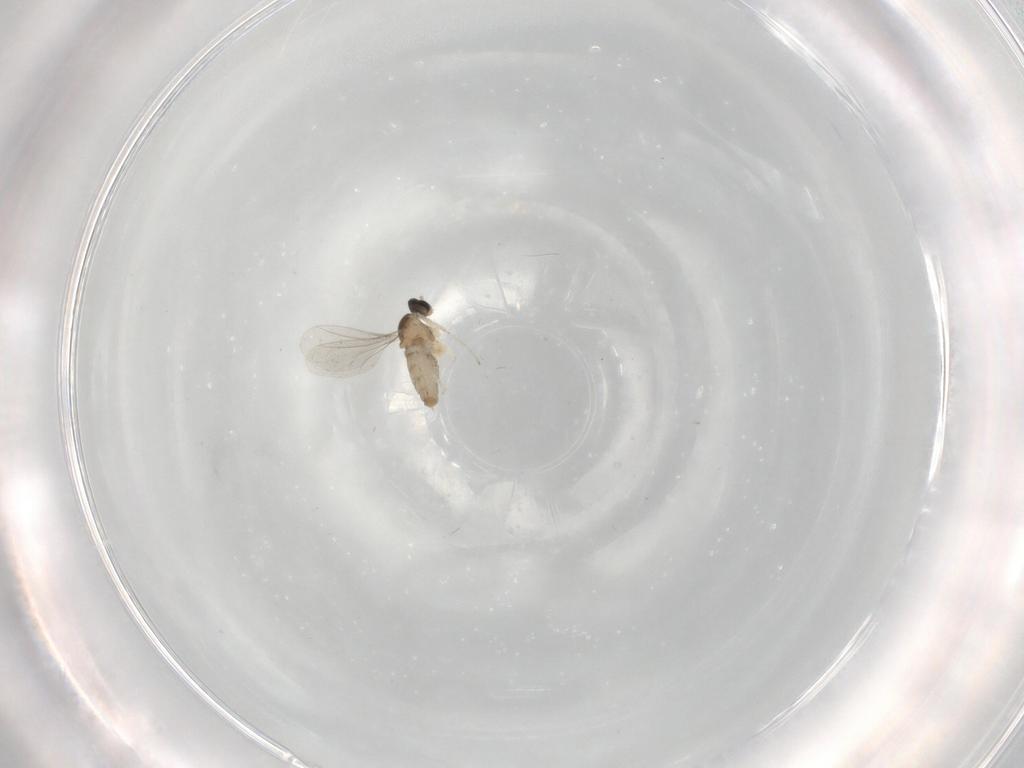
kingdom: Animalia
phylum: Arthropoda
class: Insecta
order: Diptera
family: Cecidomyiidae
